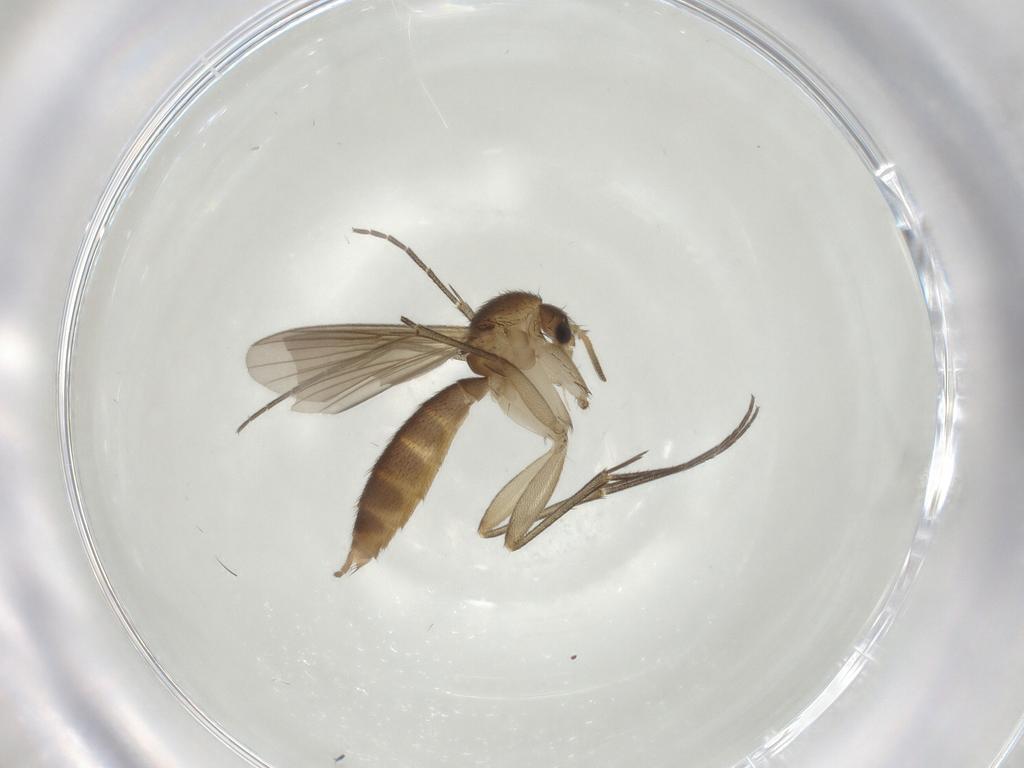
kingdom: Animalia
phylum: Arthropoda
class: Insecta
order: Diptera
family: Mycetophilidae
